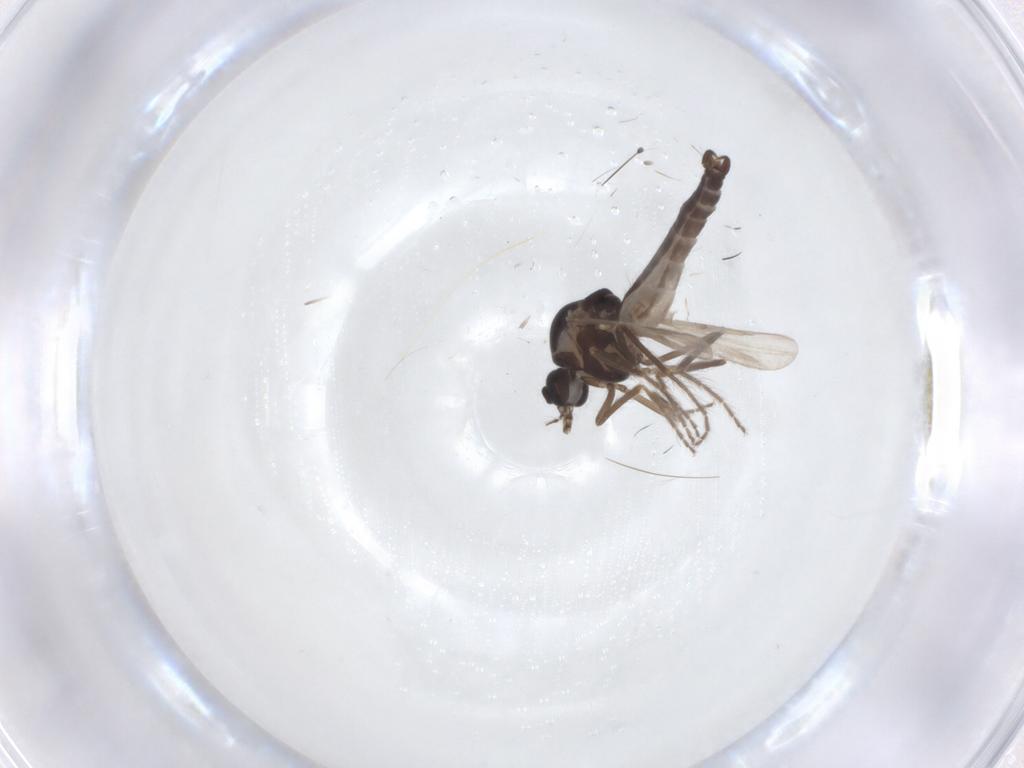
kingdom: Animalia
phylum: Arthropoda
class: Insecta
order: Diptera
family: Ceratopogonidae
